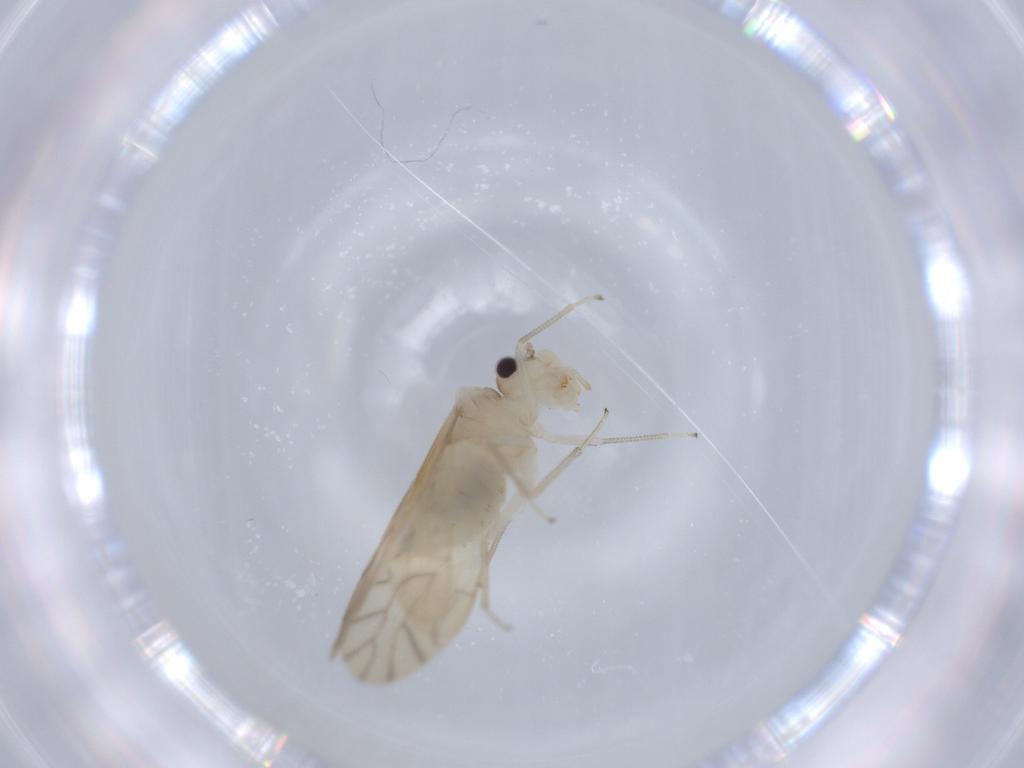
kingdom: Animalia
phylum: Arthropoda
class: Insecta
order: Psocodea
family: Caeciliusidae
